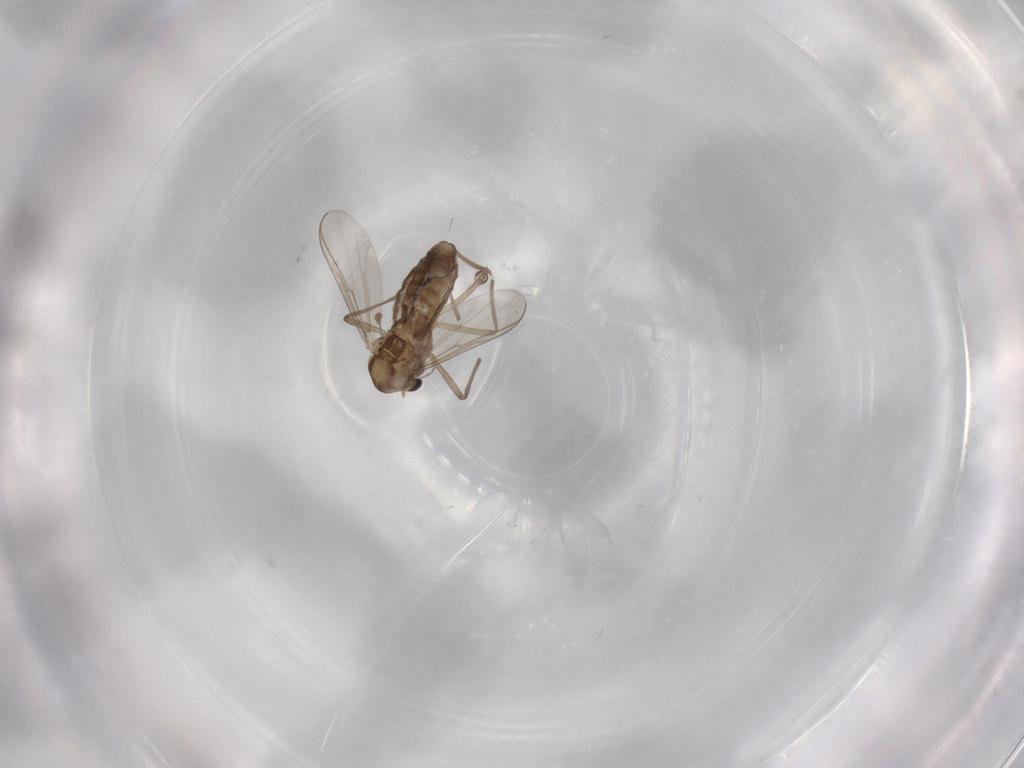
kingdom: Animalia
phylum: Arthropoda
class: Insecta
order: Diptera
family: Chironomidae
